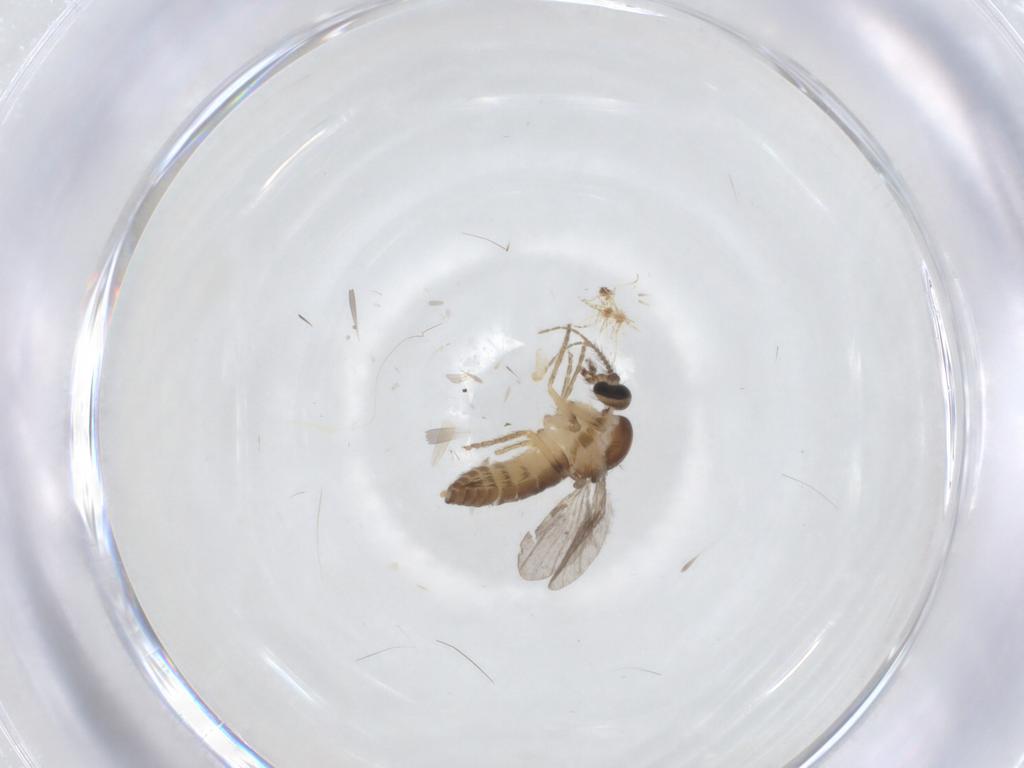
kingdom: Animalia
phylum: Arthropoda
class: Insecta
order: Diptera
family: Ceratopogonidae
